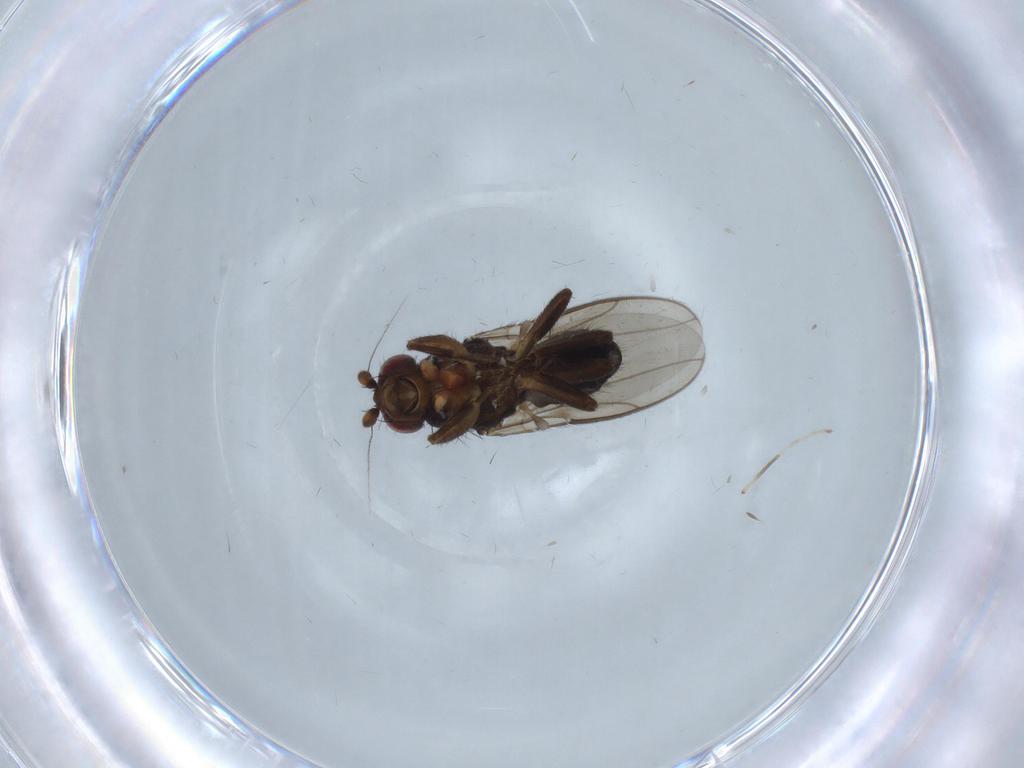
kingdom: Animalia
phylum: Arthropoda
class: Insecta
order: Diptera
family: Sphaeroceridae
